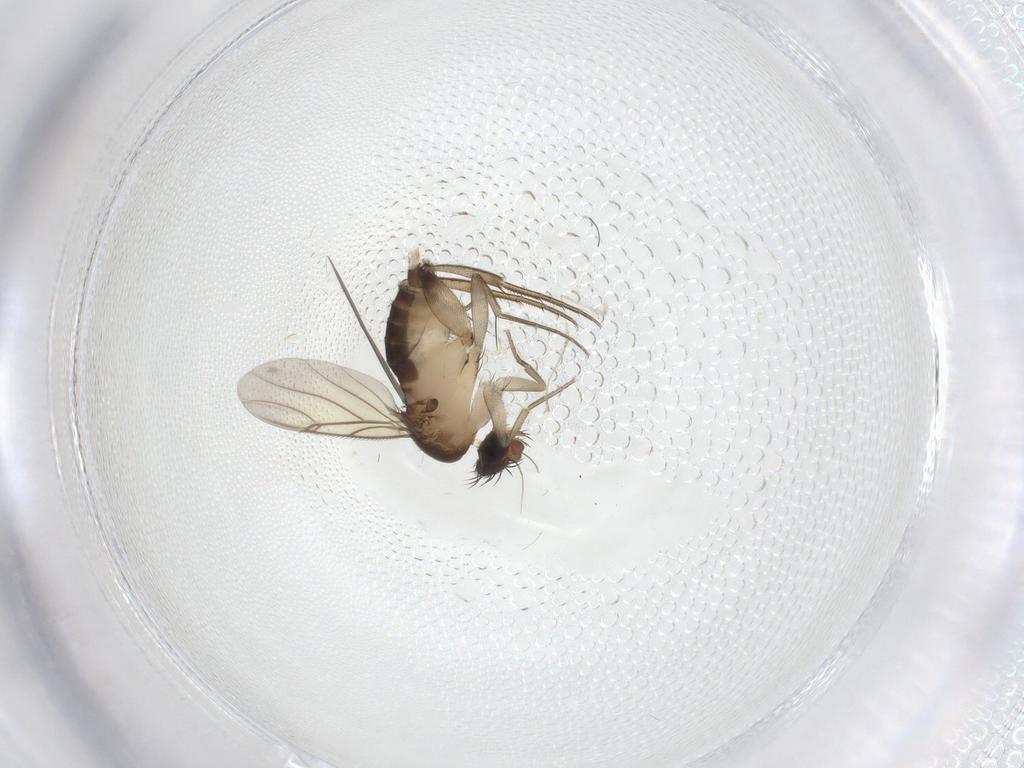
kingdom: Animalia
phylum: Arthropoda
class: Insecta
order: Diptera
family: Phoridae
